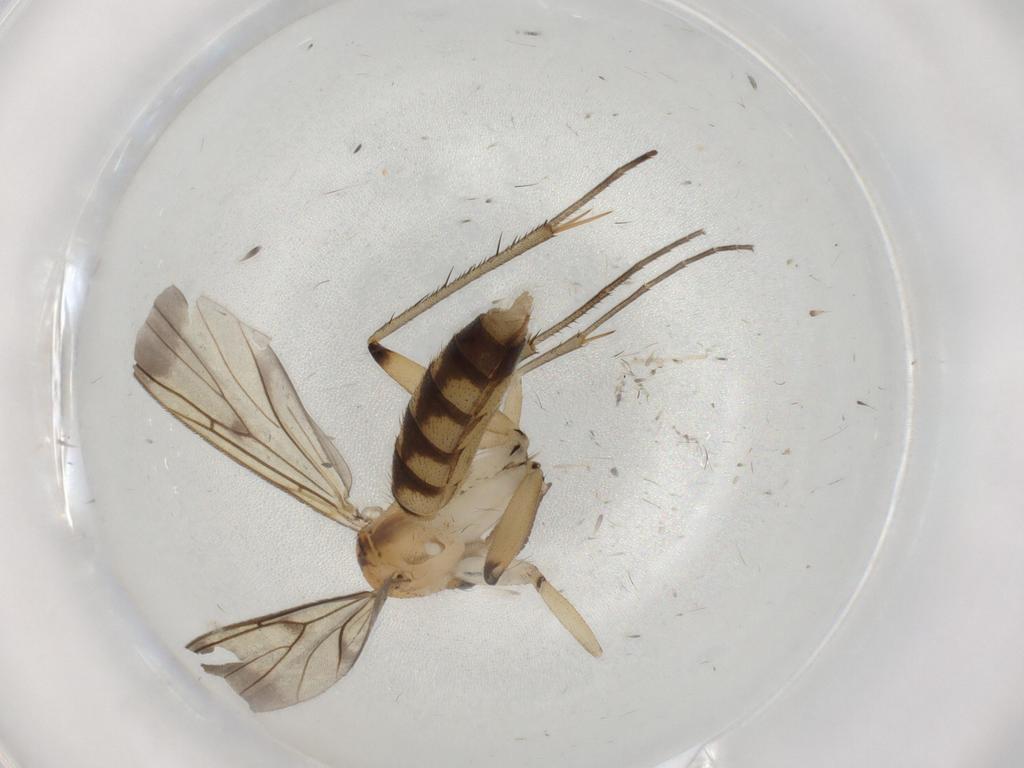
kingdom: Animalia
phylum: Arthropoda
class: Insecta
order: Diptera
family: Mycetophilidae
